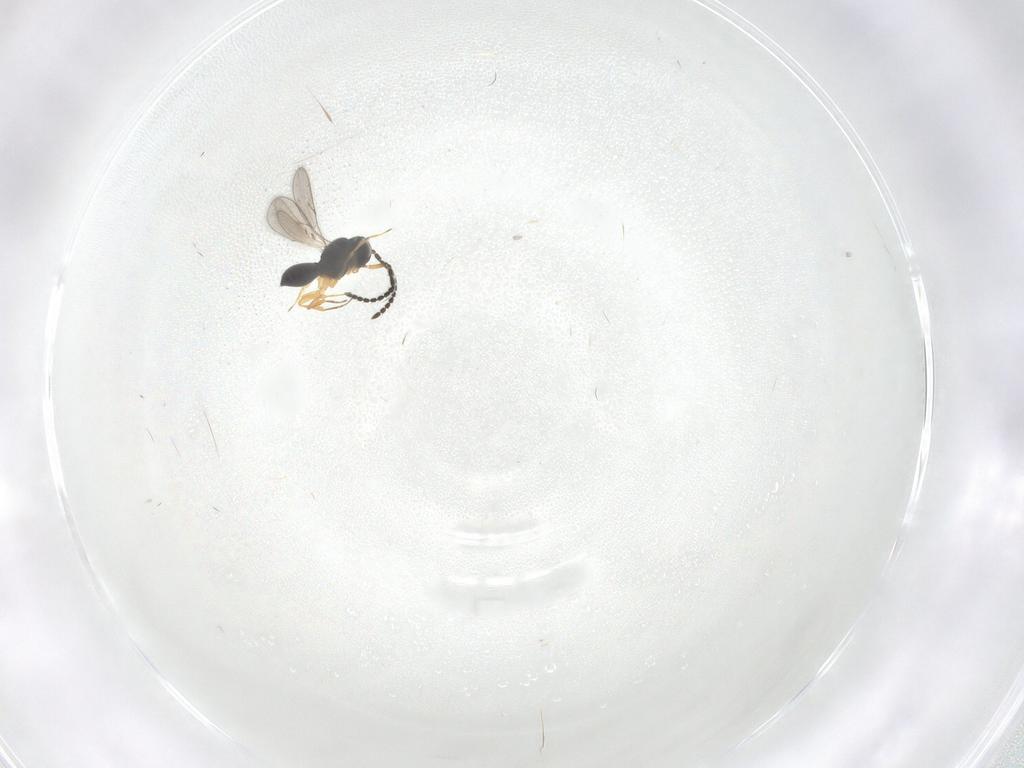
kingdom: Animalia
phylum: Arthropoda
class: Insecta
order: Hymenoptera
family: Scelionidae
